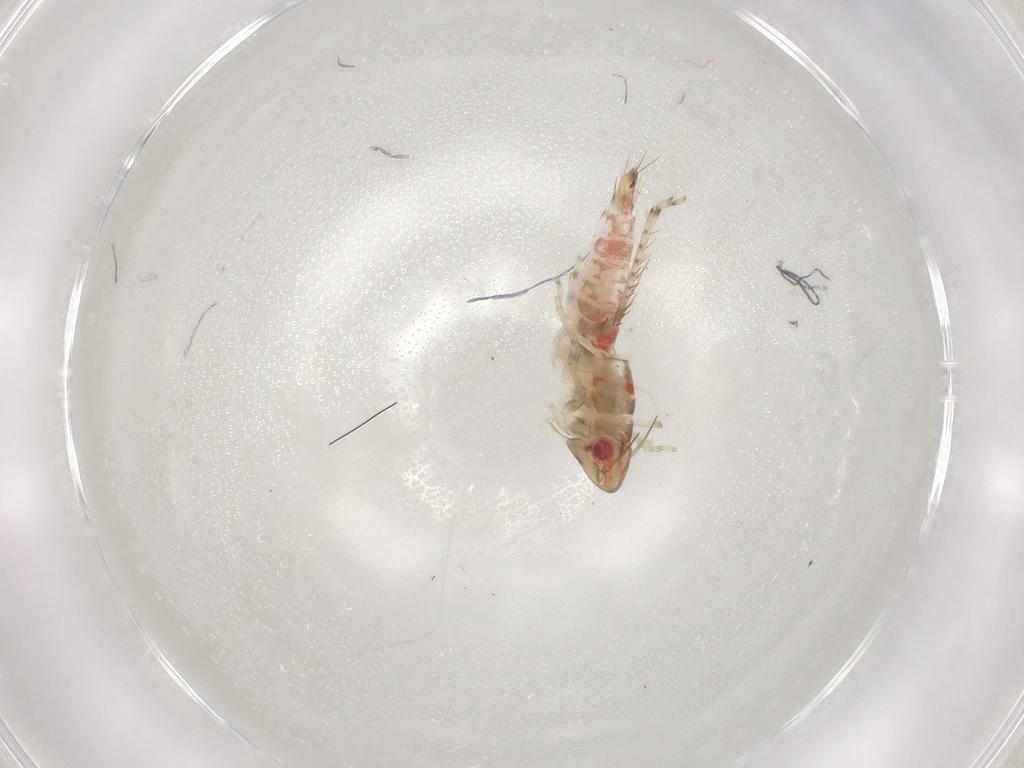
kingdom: Animalia
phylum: Arthropoda
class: Insecta
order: Hemiptera
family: Cicadellidae
